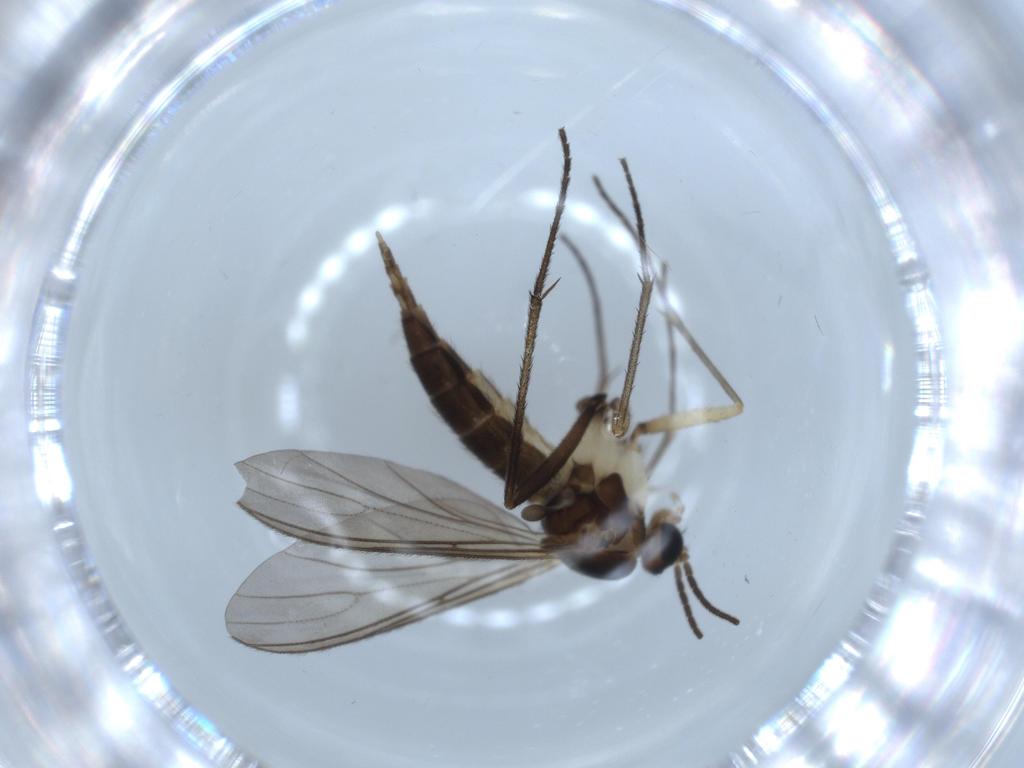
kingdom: Animalia
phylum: Arthropoda
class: Insecta
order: Diptera
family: Sciaridae
